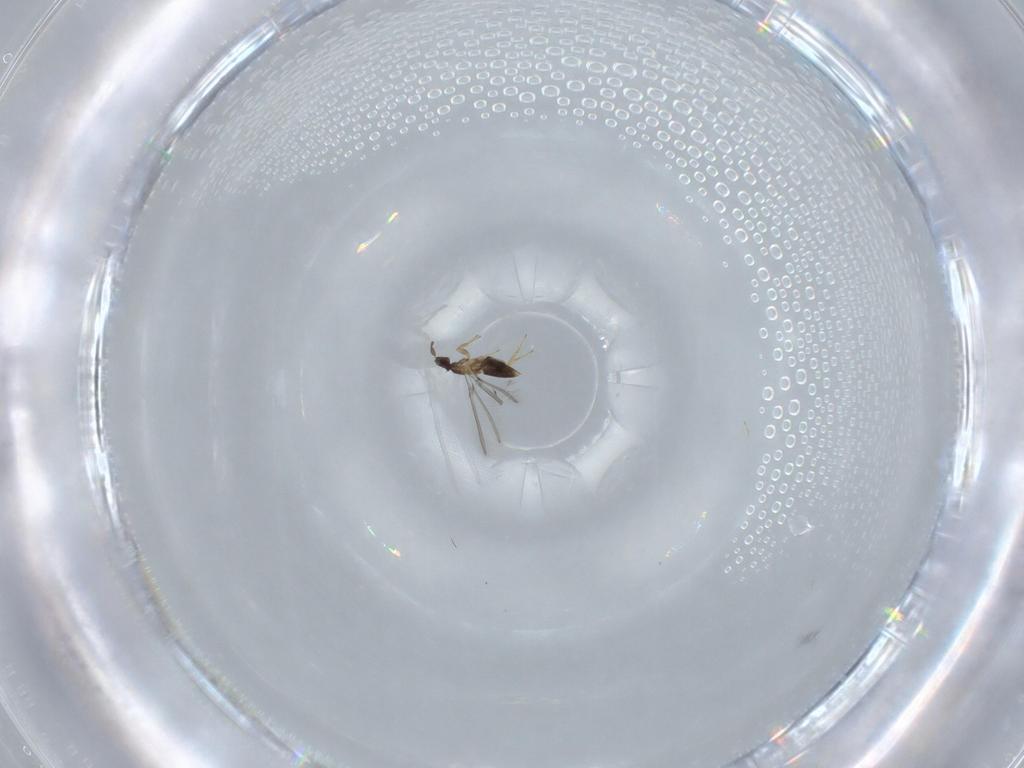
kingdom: Animalia
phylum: Arthropoda
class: Insecta
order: Hymenoptera
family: Mymaridae
